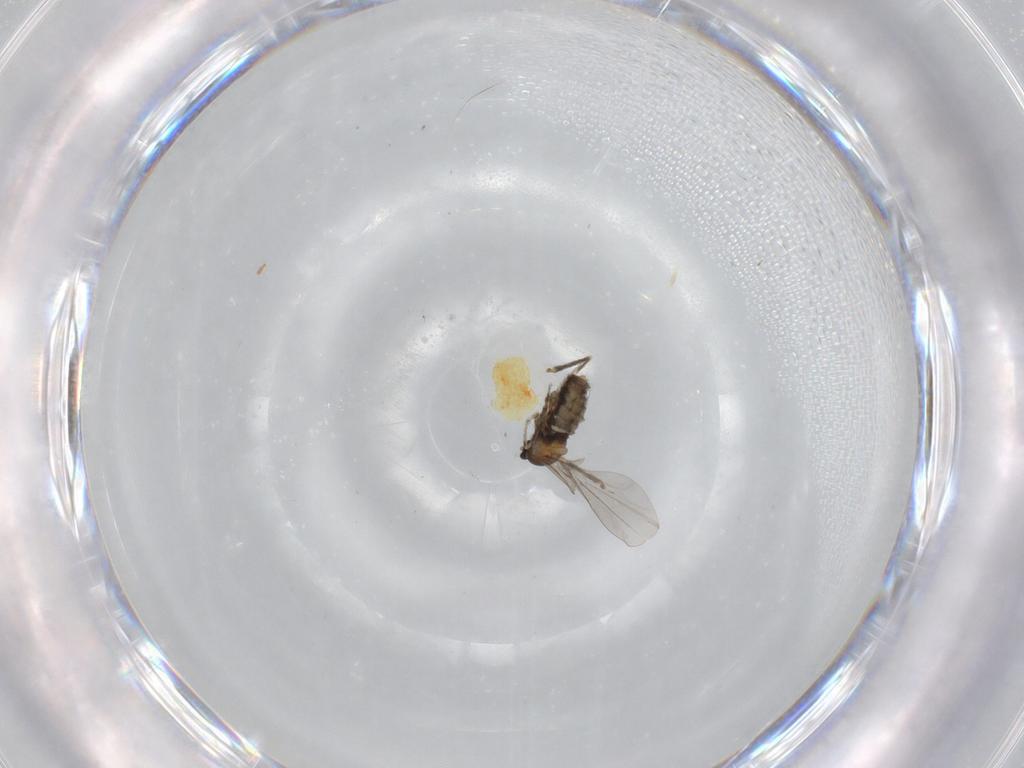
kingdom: Animalia
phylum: Arthropoda
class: Insecta
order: Diptera
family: Cecidomyiidae
